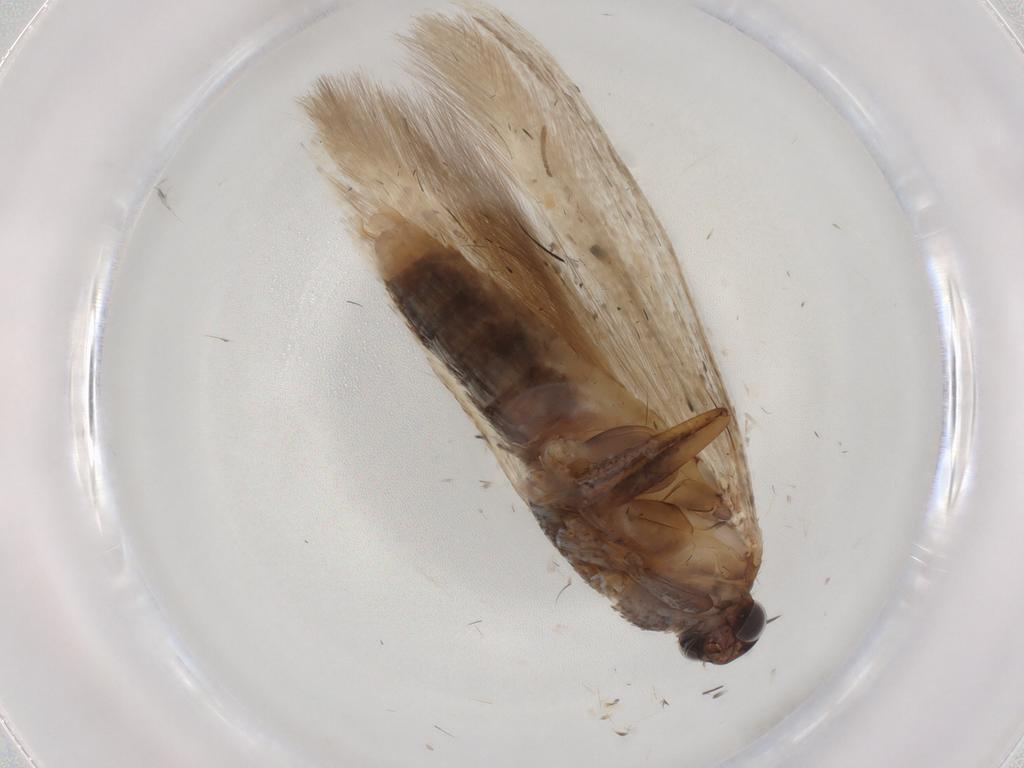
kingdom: Animalia
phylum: Arthropoda
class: Insecta
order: Lepidoptera
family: Gelechiidae
